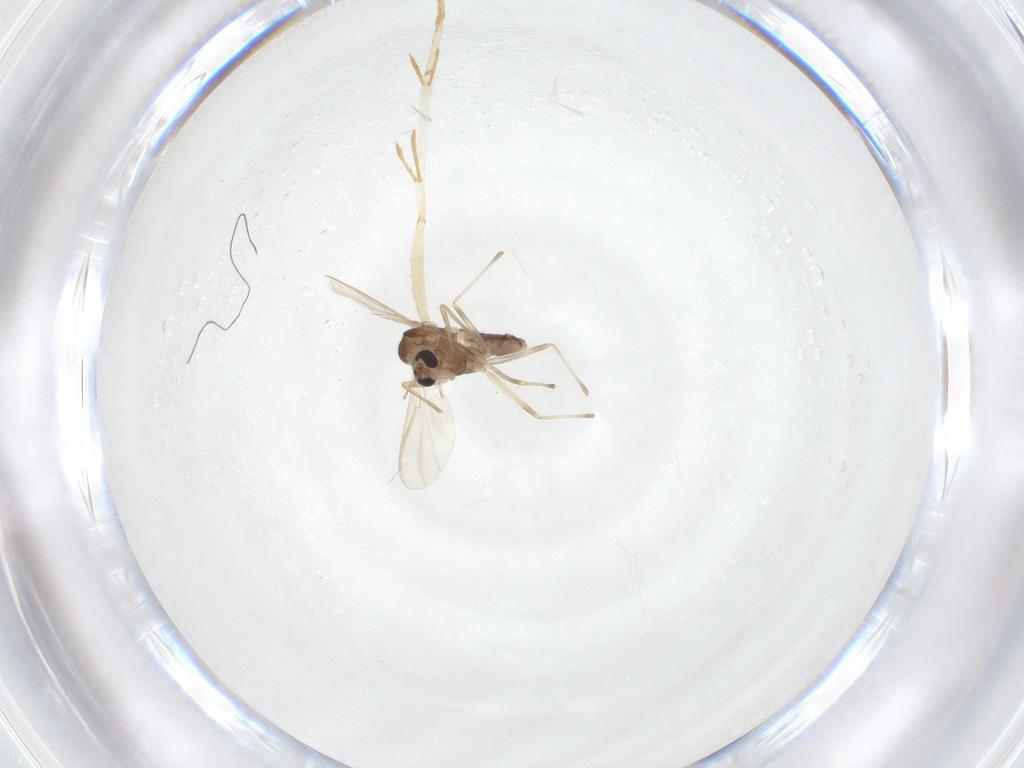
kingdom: Animalia
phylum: Arthropoda
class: Insecta
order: Diptera
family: Chironomidae
